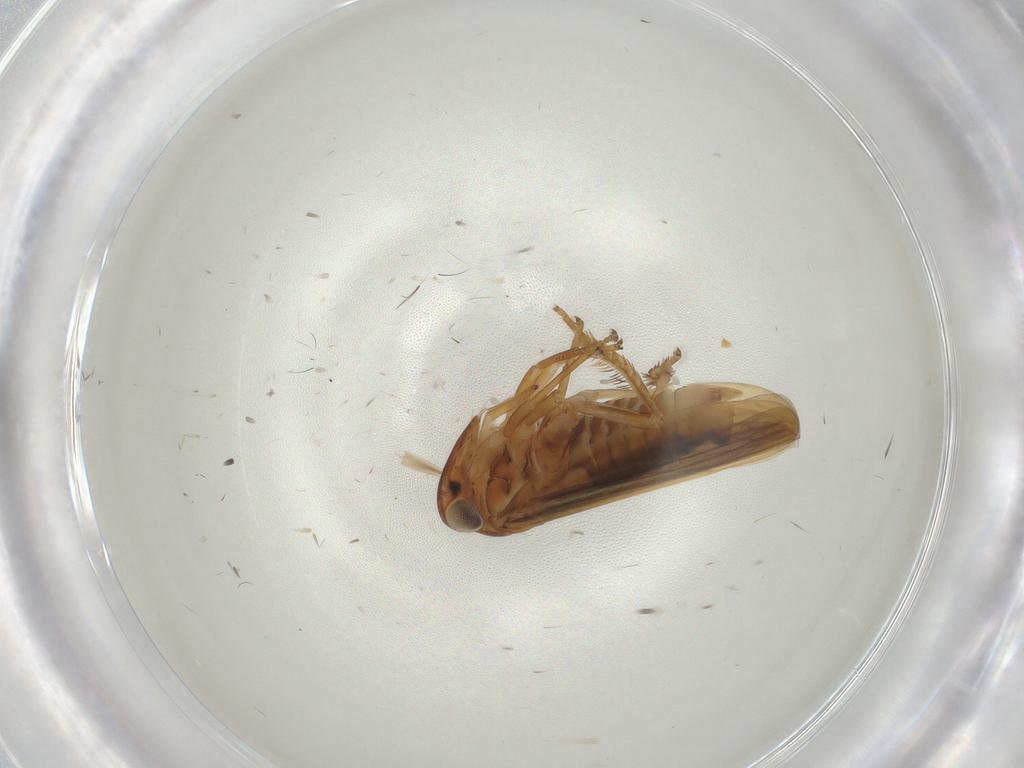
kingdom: Animalia
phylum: Arthropoda
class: Insecta
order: Hemiptera
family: Cicadellidae
